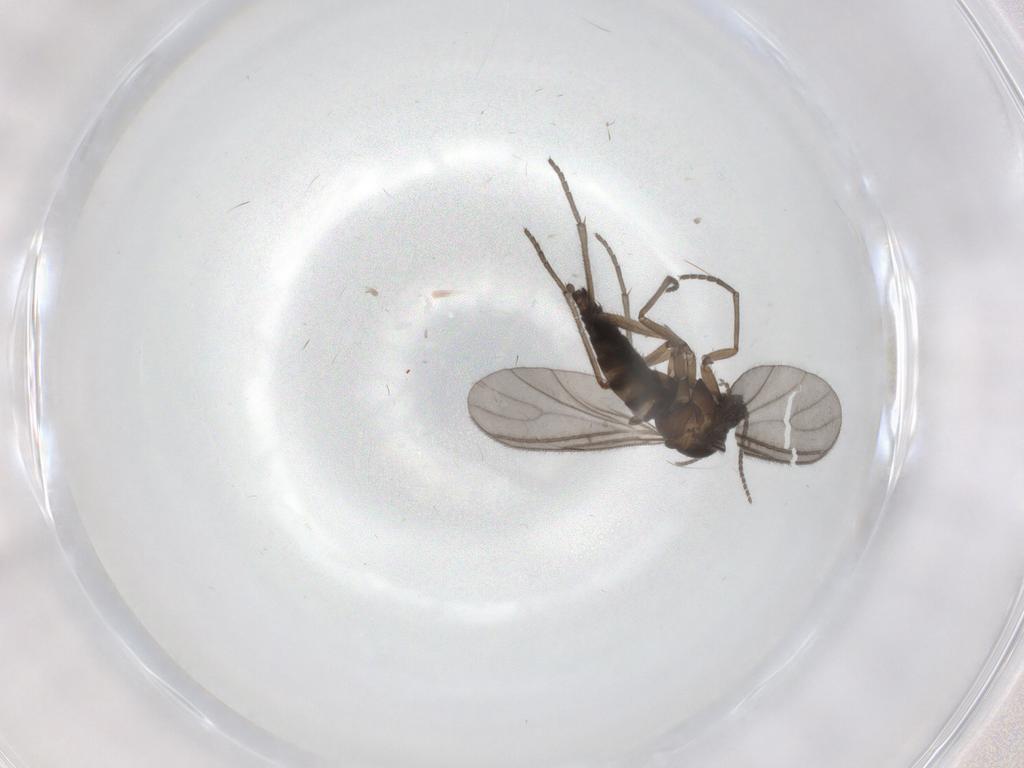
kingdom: Animalia
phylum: Arthropoda
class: Insecta
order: Diptera
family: Sciaridae
